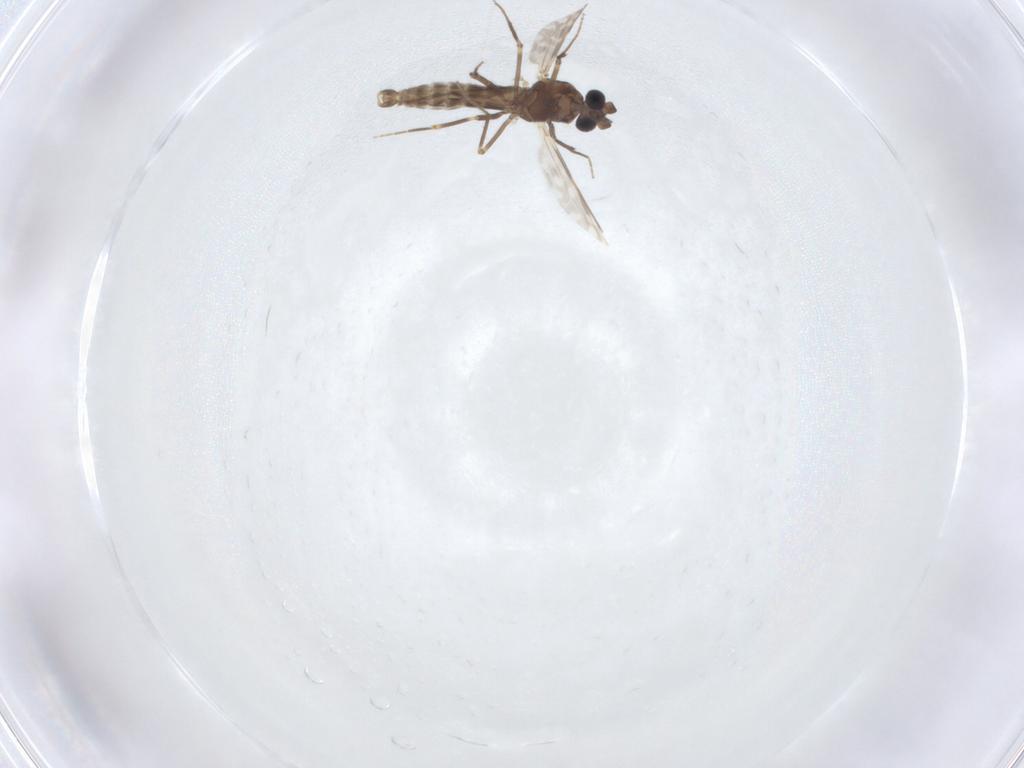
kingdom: Animalia
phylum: Arthropoda
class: Insecta
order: Diptera
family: Ceratopogonidae
